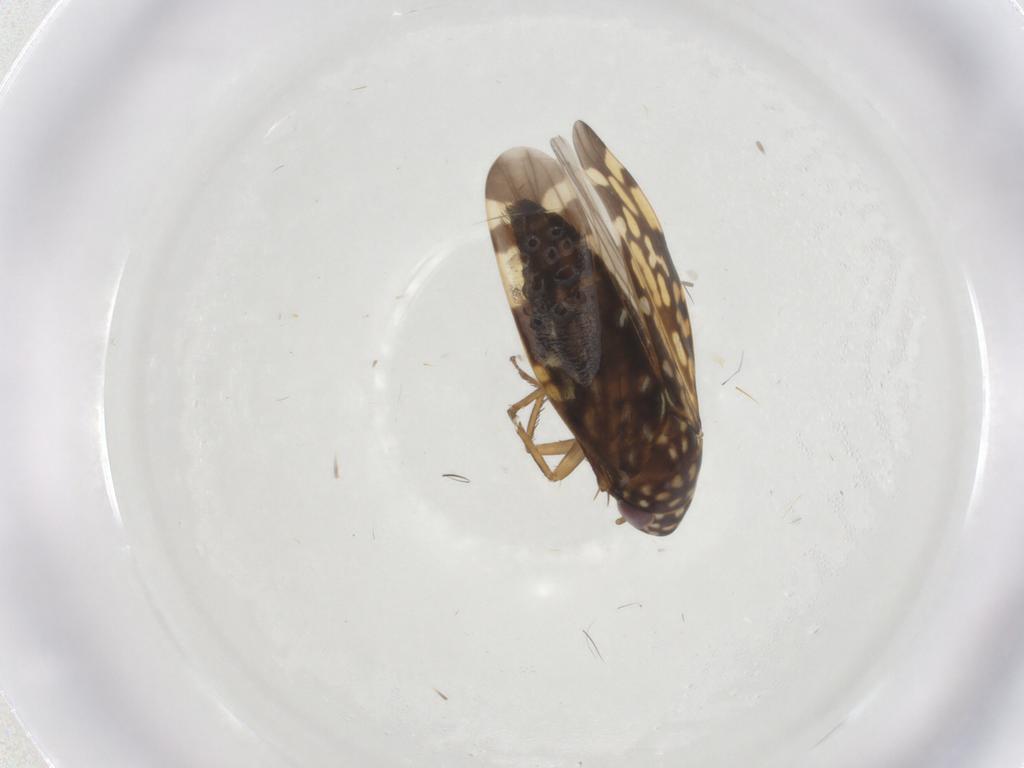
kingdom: Animalia
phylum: Arthropoda
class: Insecta
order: Hemiptera
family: Cicadellidae
